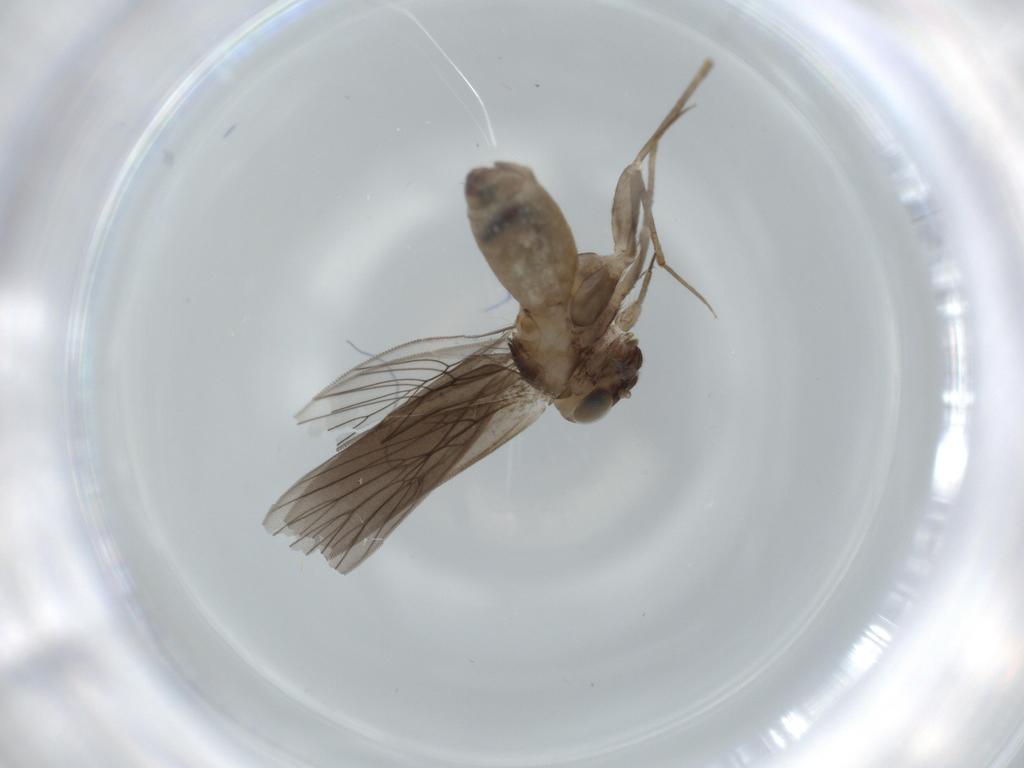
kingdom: Animalia
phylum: Arthropoda
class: Insecta
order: Psocodea
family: Lepidopsocidae
